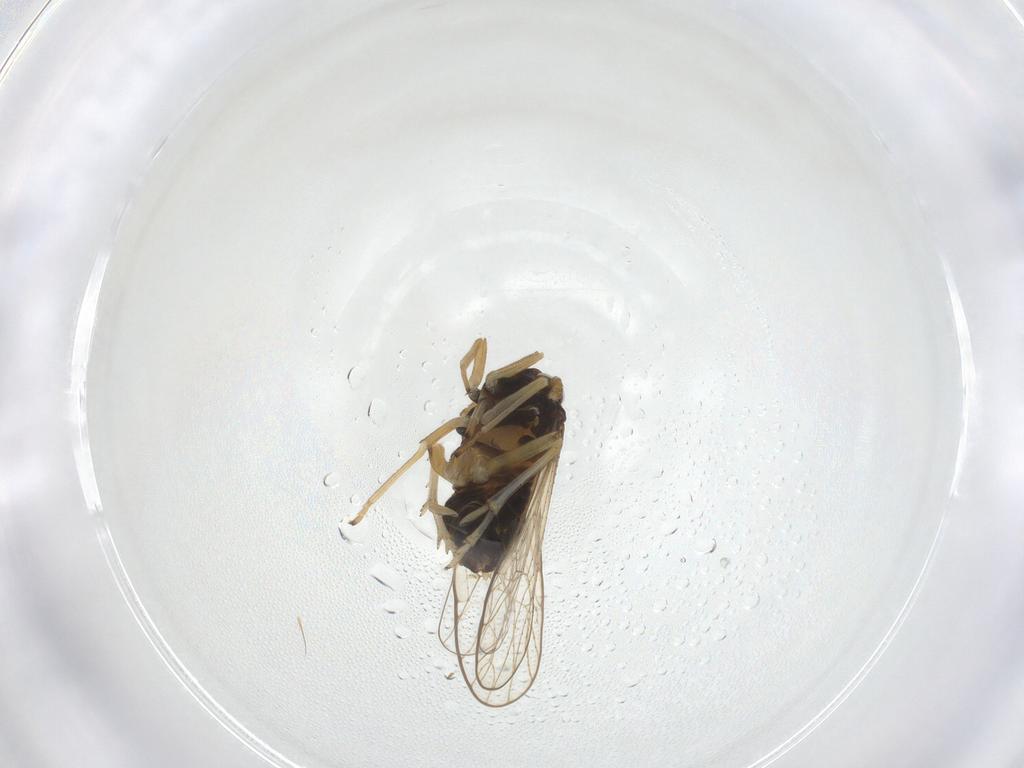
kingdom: Animalia
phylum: Arthropoda
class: Insecta
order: Hemiptera
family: Delphacidae
